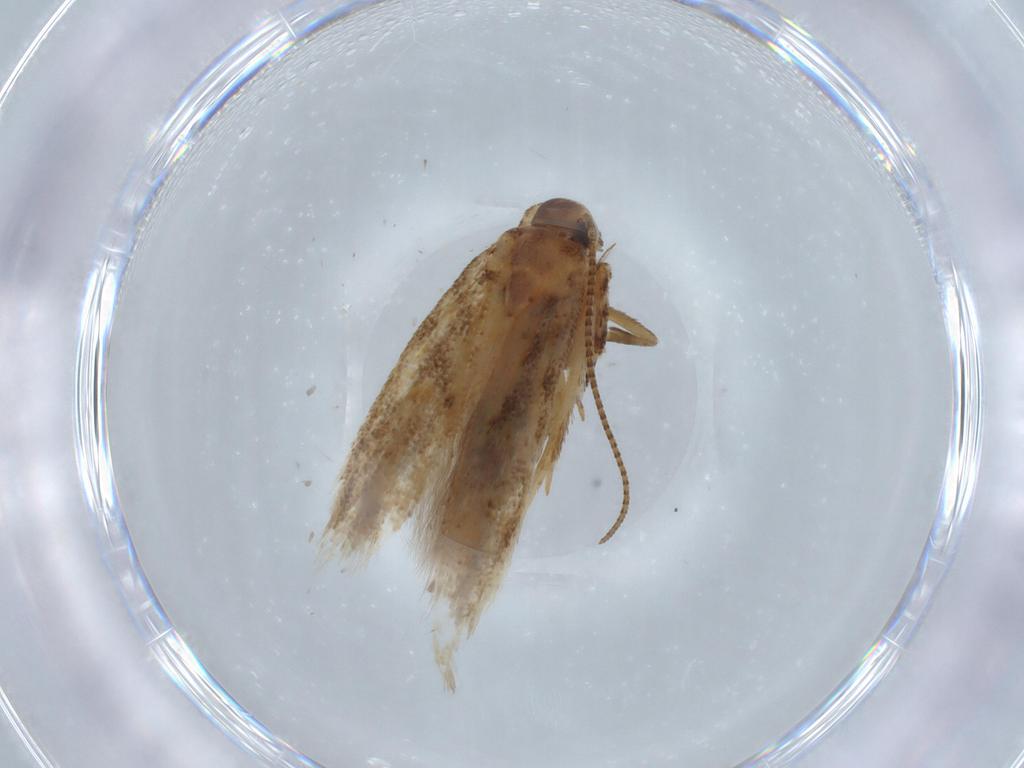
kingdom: Animalia
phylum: Arthropoda
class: Insecta
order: Lepidoptera
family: Gelechiidae
